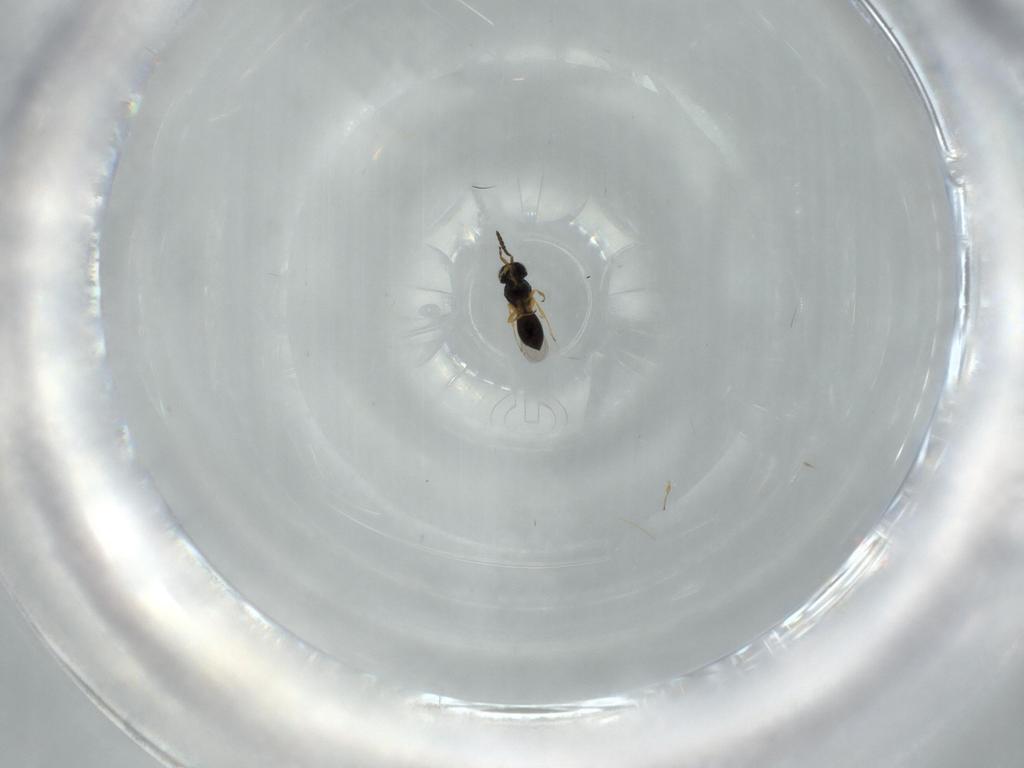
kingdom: Animalia
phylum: Arthropoda
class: Insecta
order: Hymenoptera
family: Scelionidae
